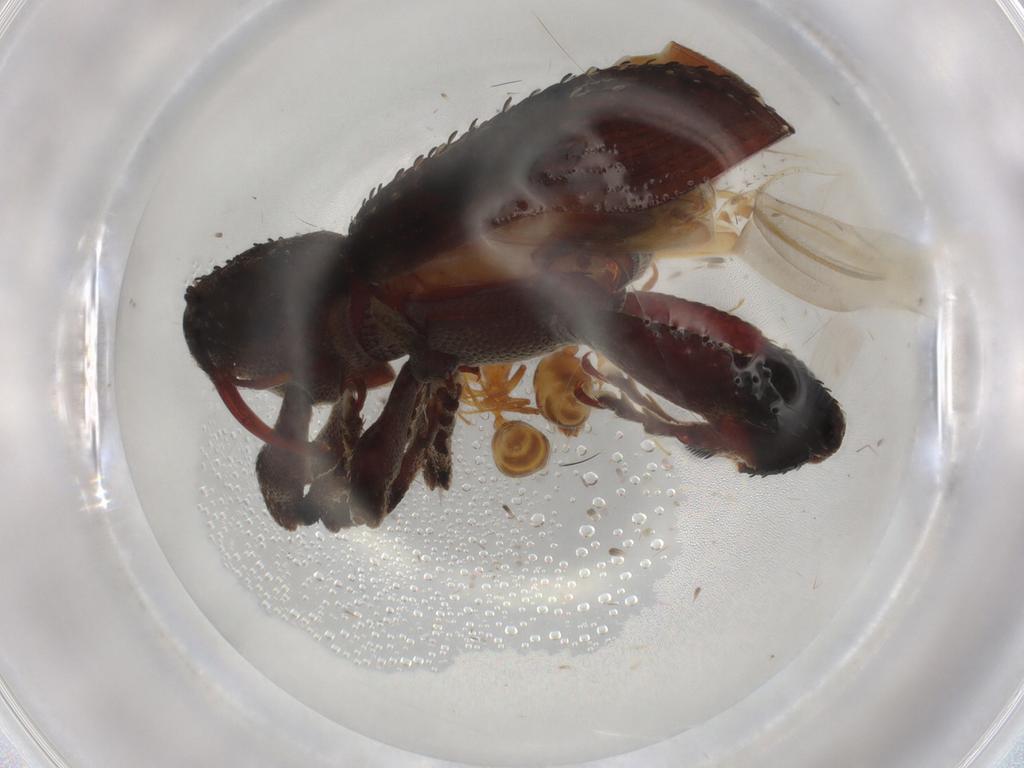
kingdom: Animalia
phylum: Arthropoda
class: Insecta
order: Coleoptera
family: Curculionidae
